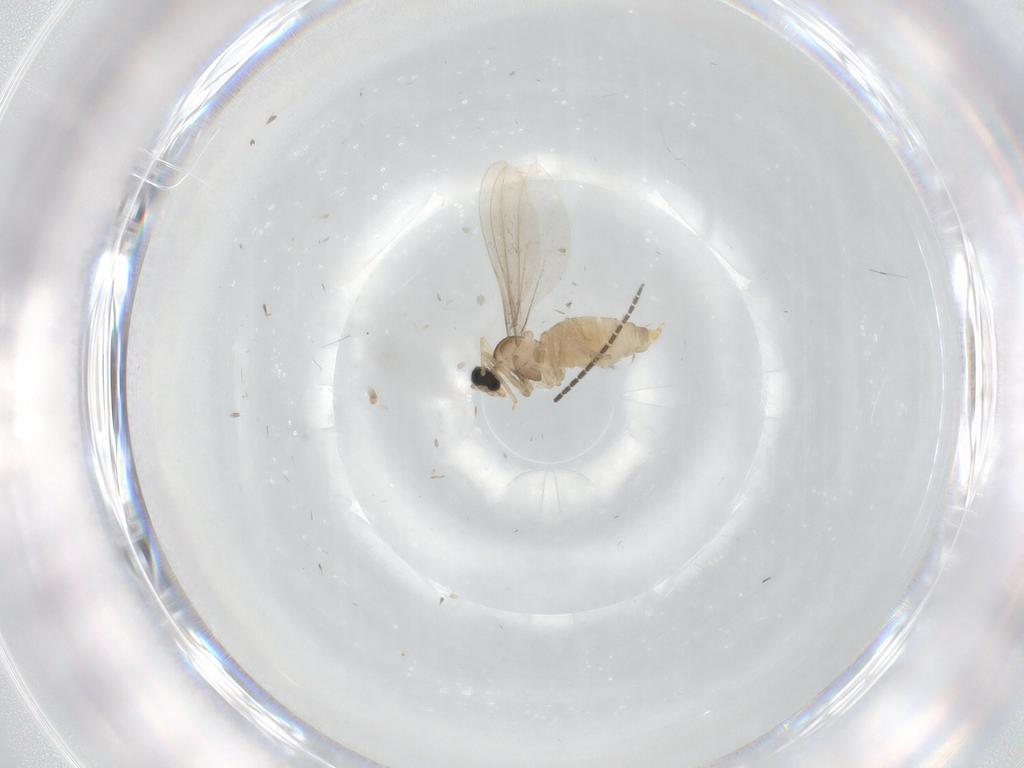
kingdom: Animalia
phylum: Arthropoda
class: Insecta
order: Diptera
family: Cecidomyiidae
